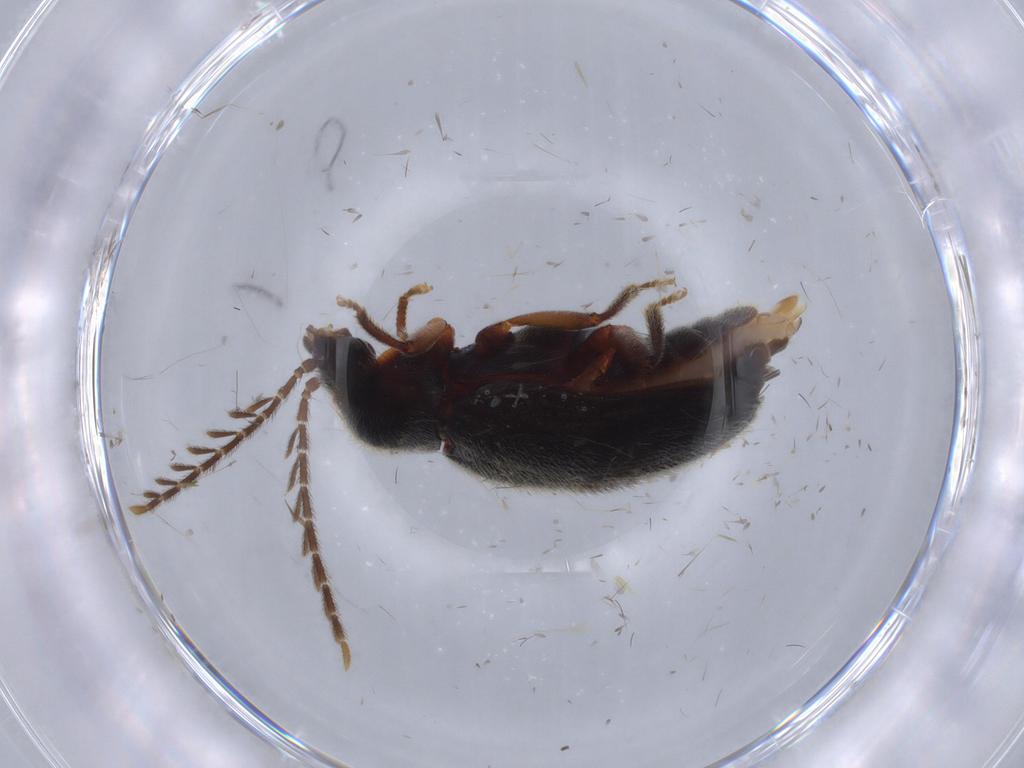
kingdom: Animalia
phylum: Arthropoda
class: Insecta
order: Coleoptera
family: Ptilodactylidae
